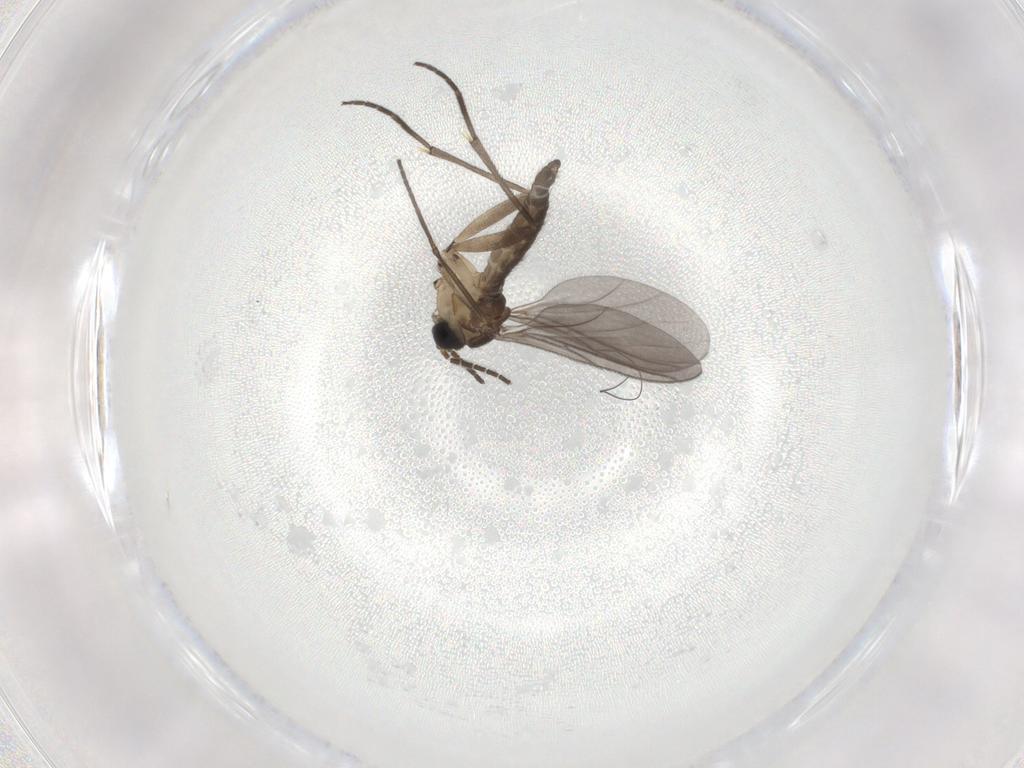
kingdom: Animalia
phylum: Arthropoda
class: Insecta
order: Diptera
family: Sciaridae
